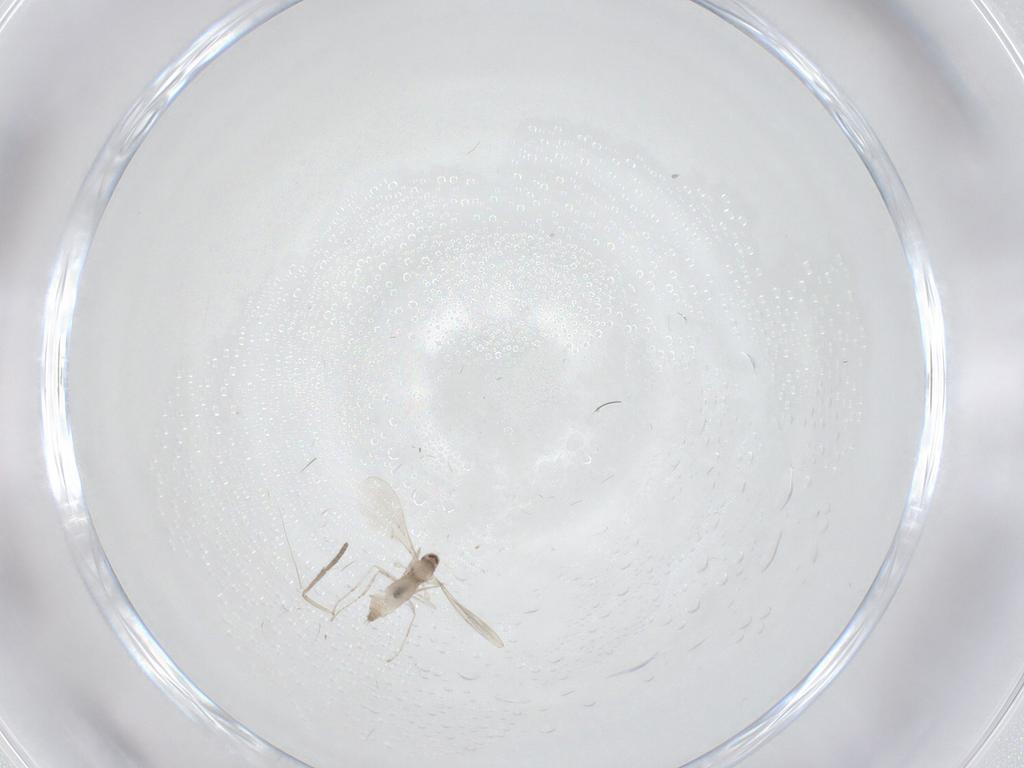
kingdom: Animalia
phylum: Arthropoda
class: Insecta
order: Diptera
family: Psychodidae
